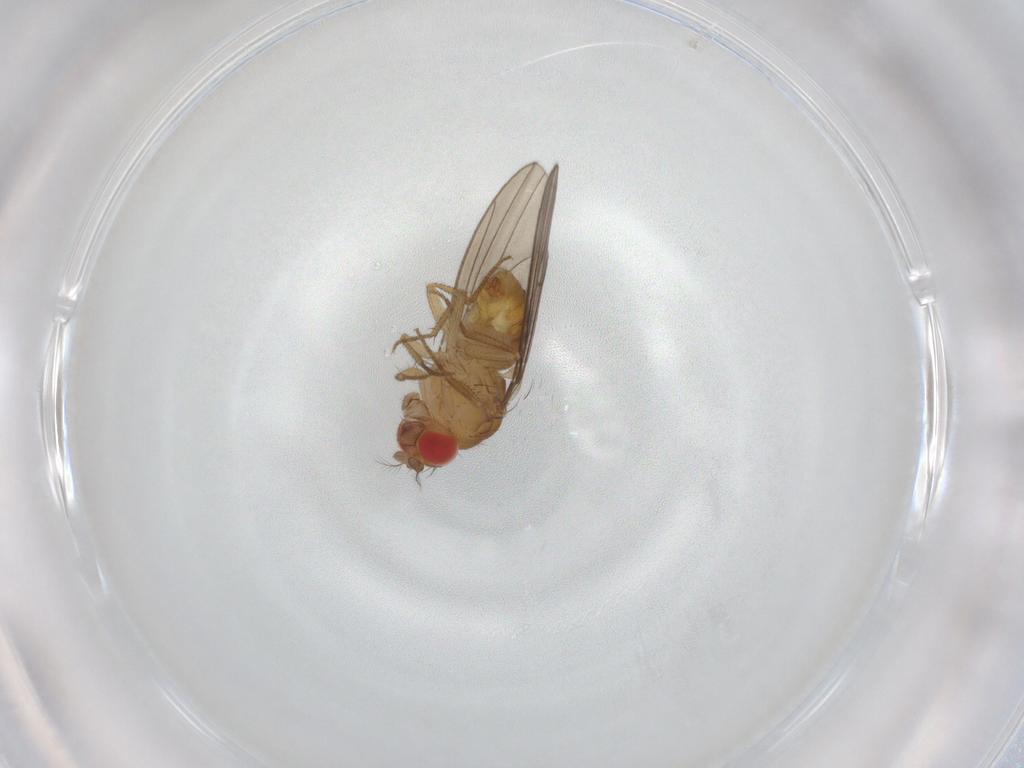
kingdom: Animalia
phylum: Arthropoda
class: Insecta
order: Diptera
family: Drosophilidae
